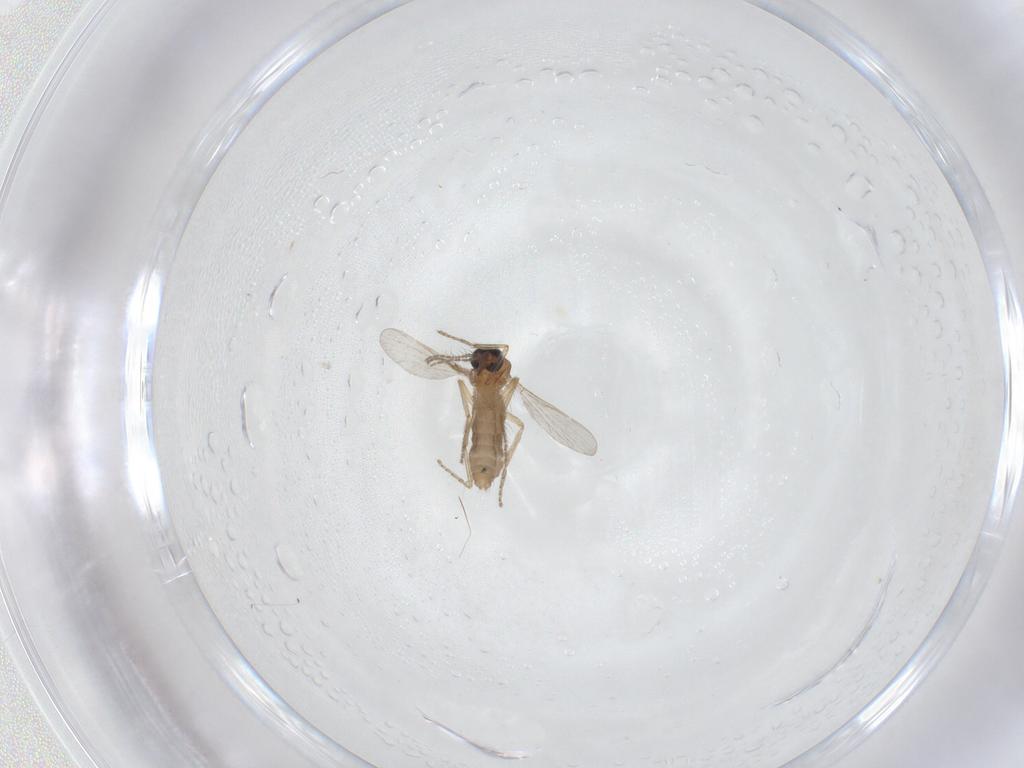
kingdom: Animalia
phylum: Arthropoda
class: Insecta
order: Diptera
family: Ceratopogonidae
